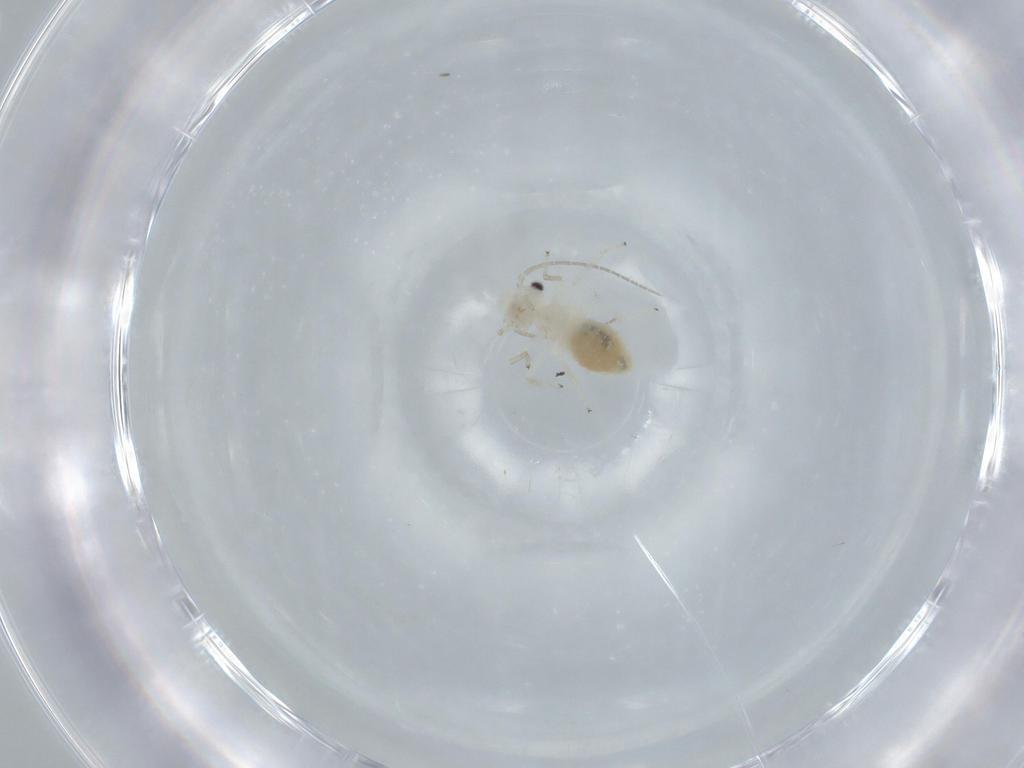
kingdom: Animalia
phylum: Arthropoda
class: Insecta
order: Psocodea
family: Caeciliusidae
